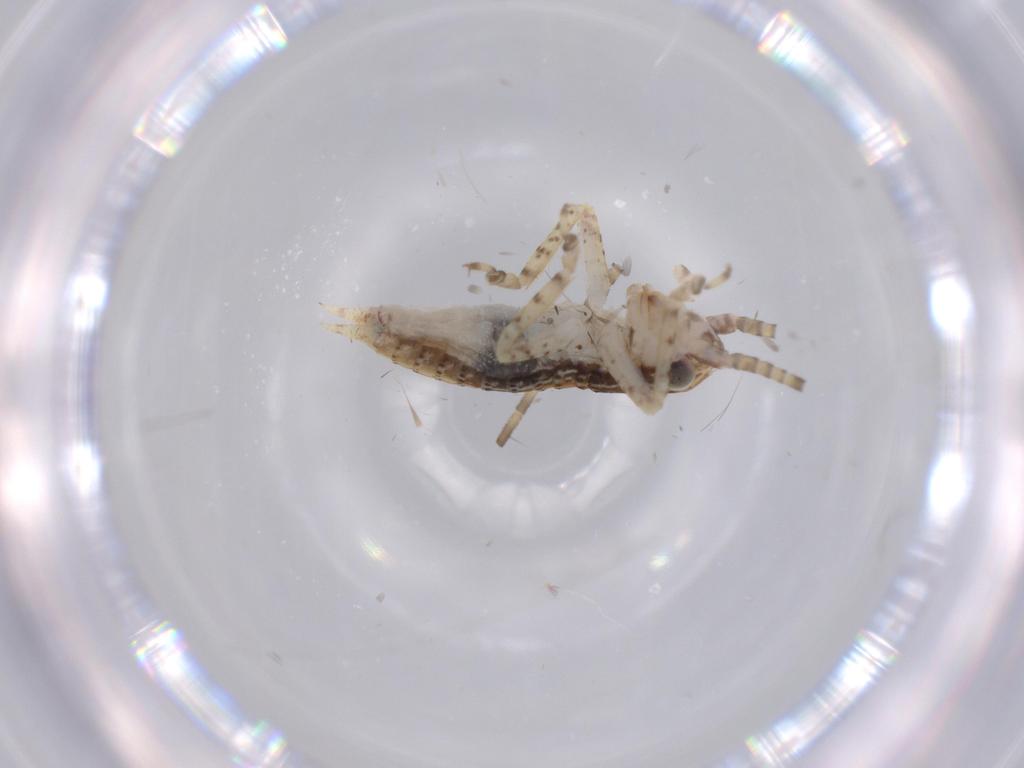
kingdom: Animalia
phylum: Arthropoda
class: Insecta
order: Orthoptera
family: Gryllidae
